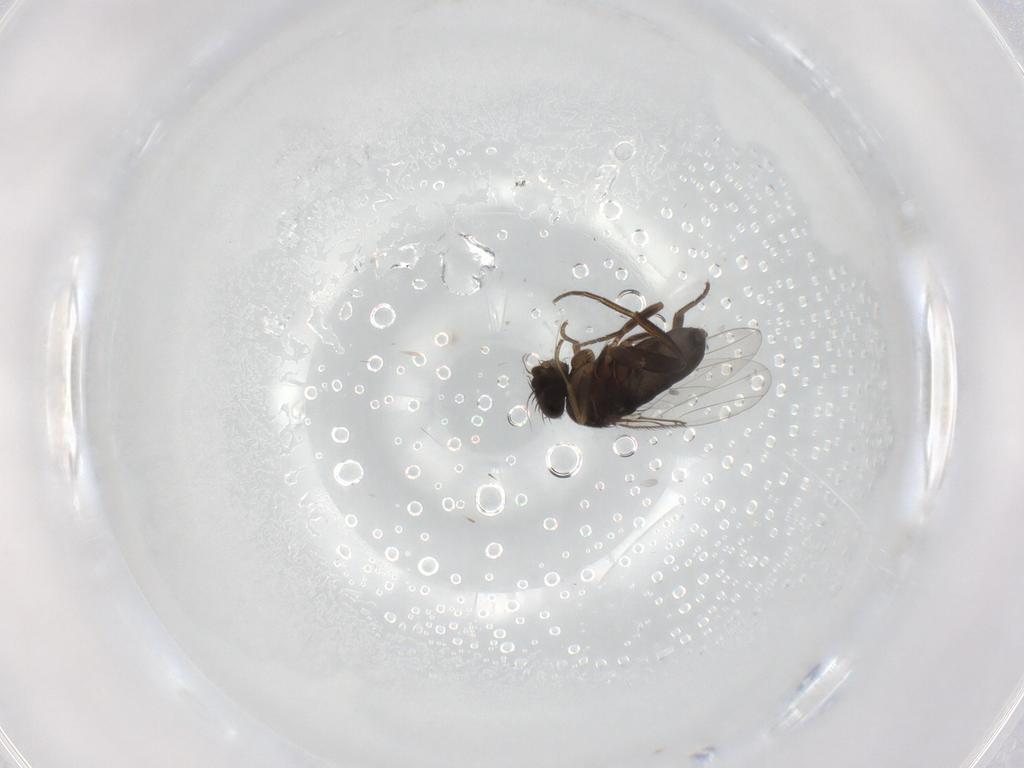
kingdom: Animalia
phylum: Arthropoda
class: Insecta
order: Diptera
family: Phoridae
